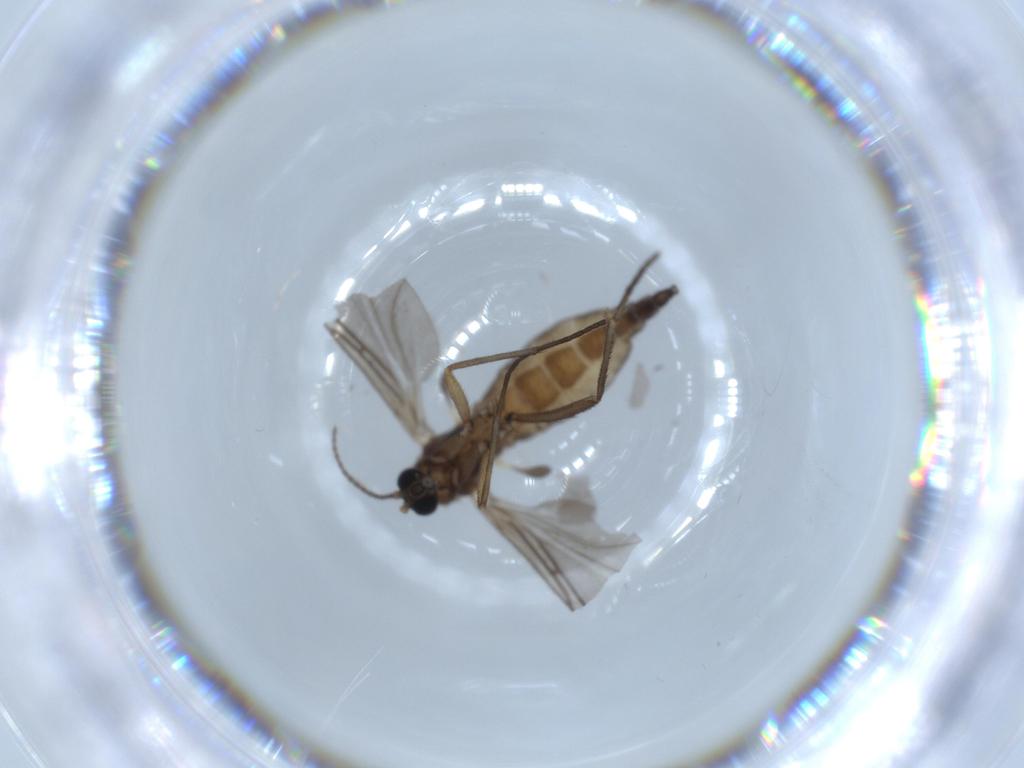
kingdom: Animalia
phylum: Arthropoda
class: Insecta
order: Diptera
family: Sciaridae
